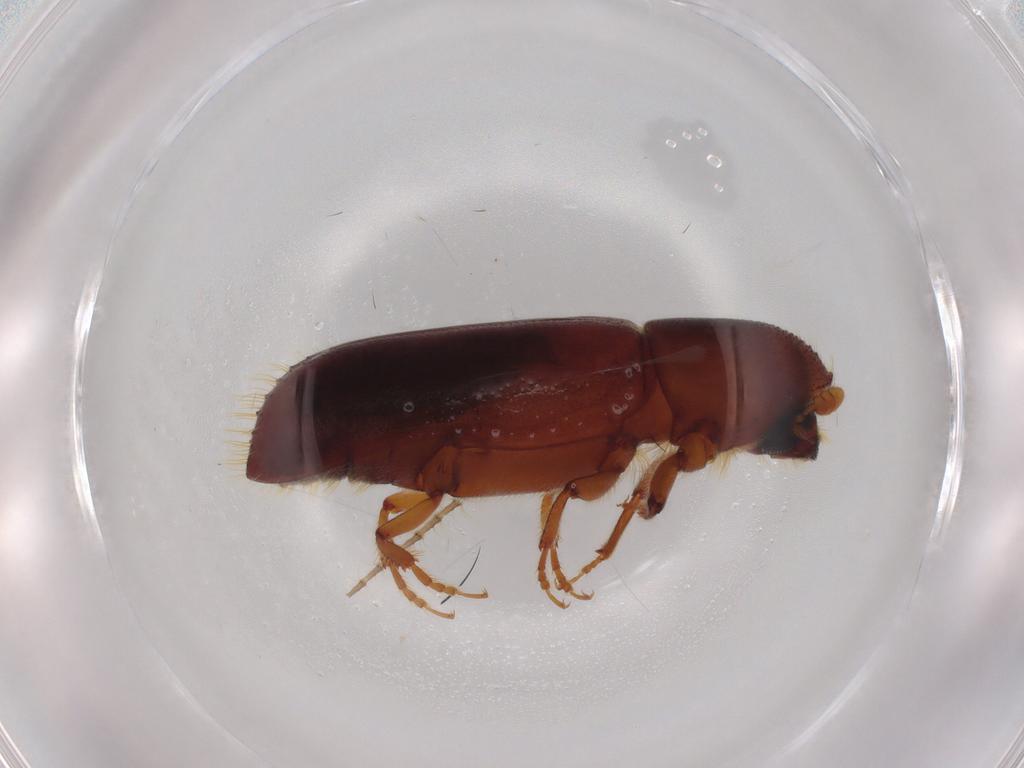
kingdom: Animalia
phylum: Arthropoda
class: Insecta
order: Coleoptera
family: Curculionidae
